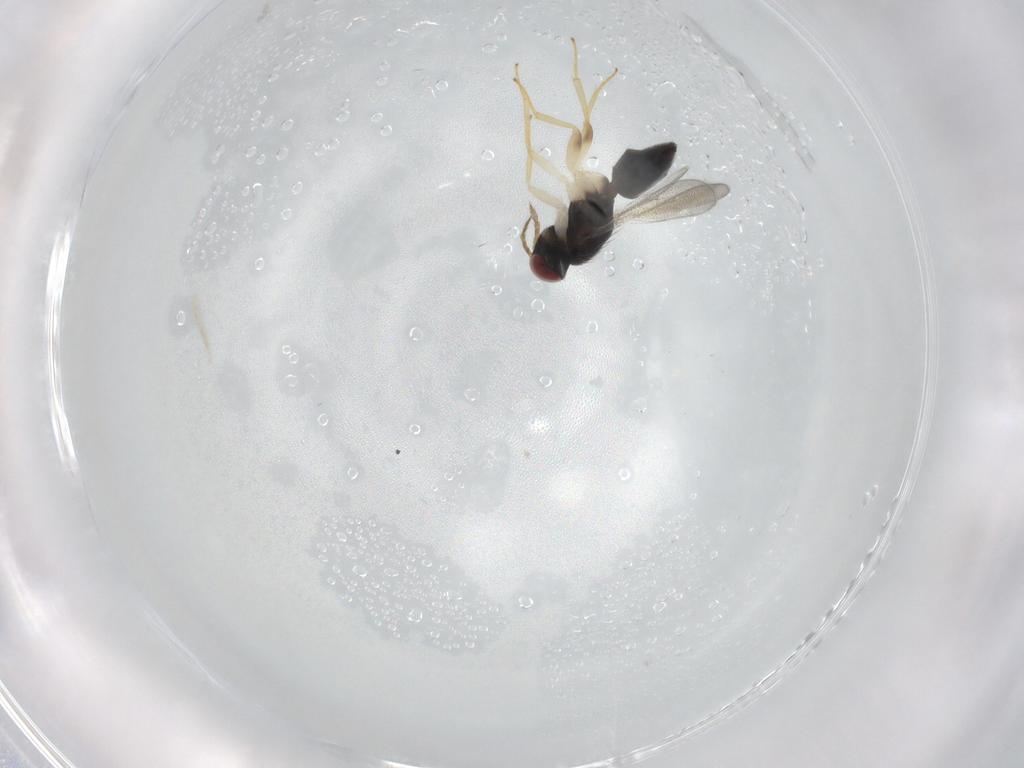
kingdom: Animalia
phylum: Arthropoda
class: Insecta
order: Hymenoptera
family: Eulophidae
